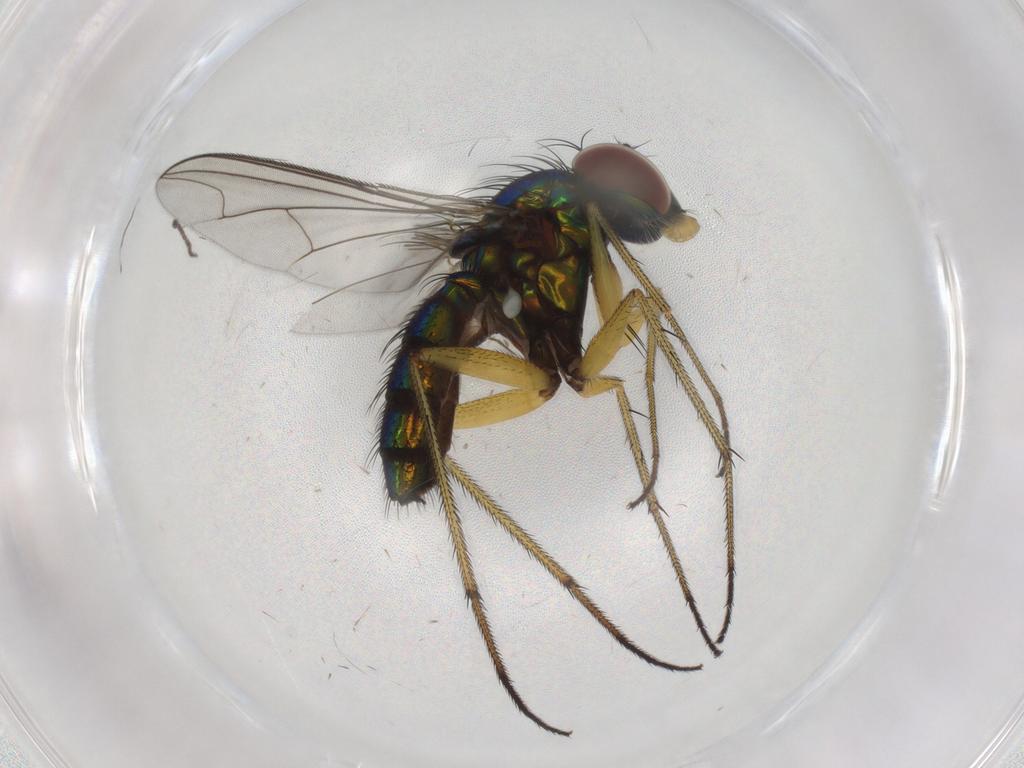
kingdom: Animalia
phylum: Arthropoda
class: Insecta
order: Diptera
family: Dolichopodidae
